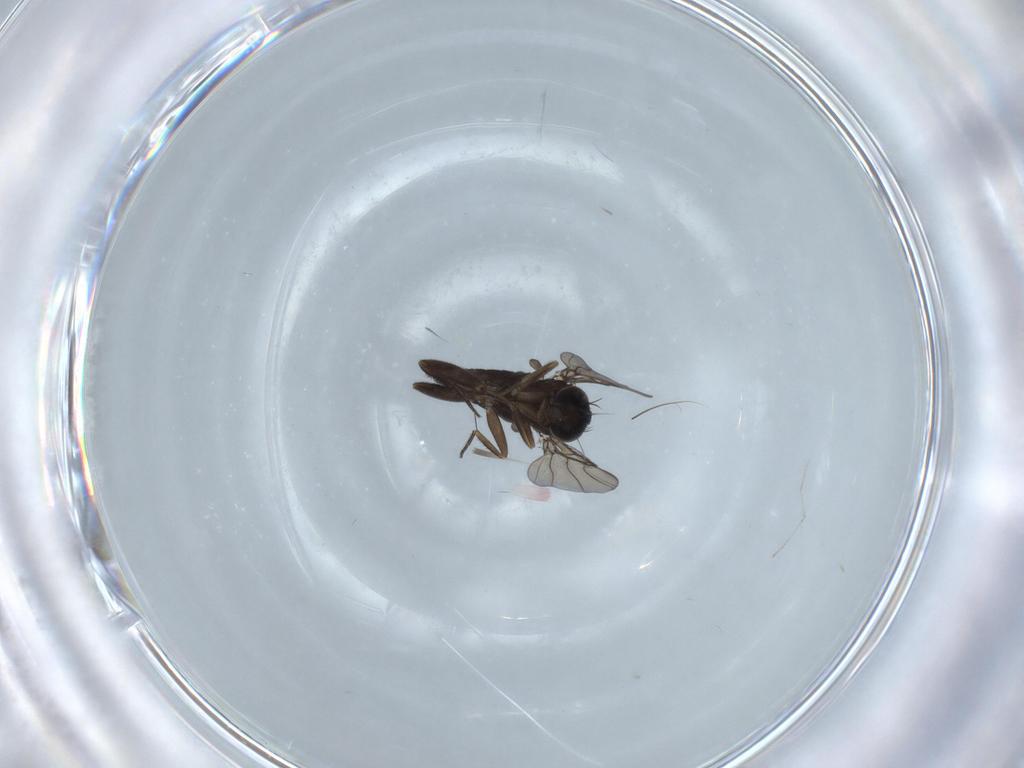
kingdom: Animalia
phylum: Arthropoda
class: Insecta
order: Diptera
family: Phoridae
